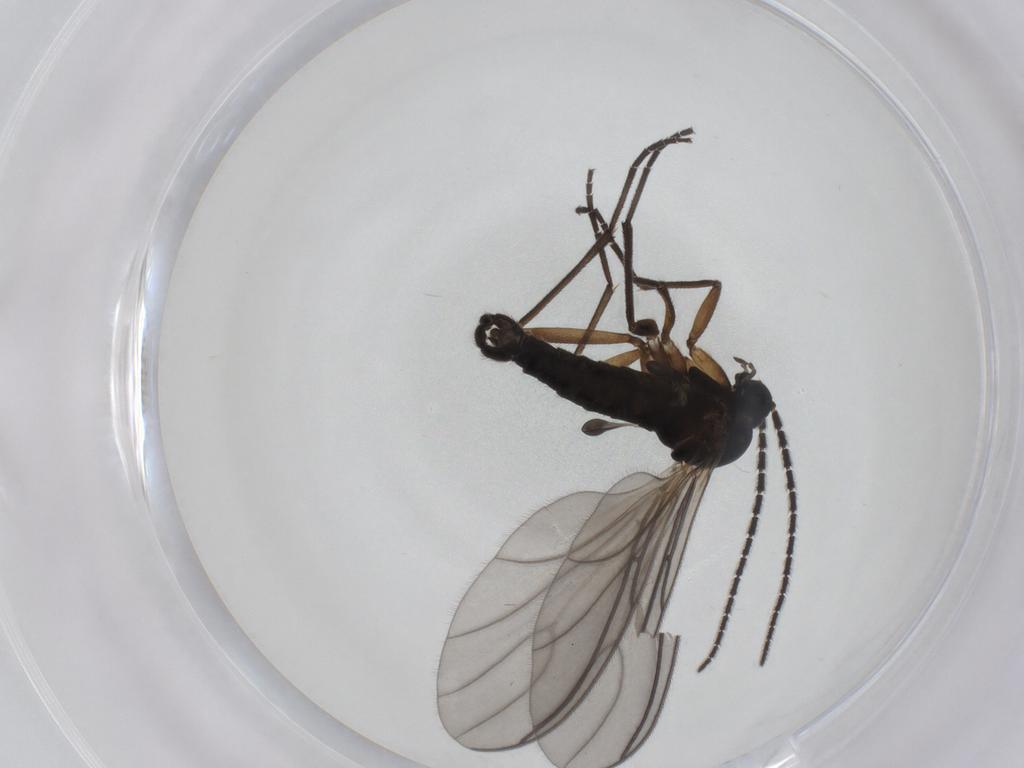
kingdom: Animalia
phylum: Arthropoda
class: Insecta
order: Diptera
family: Sciaridae
